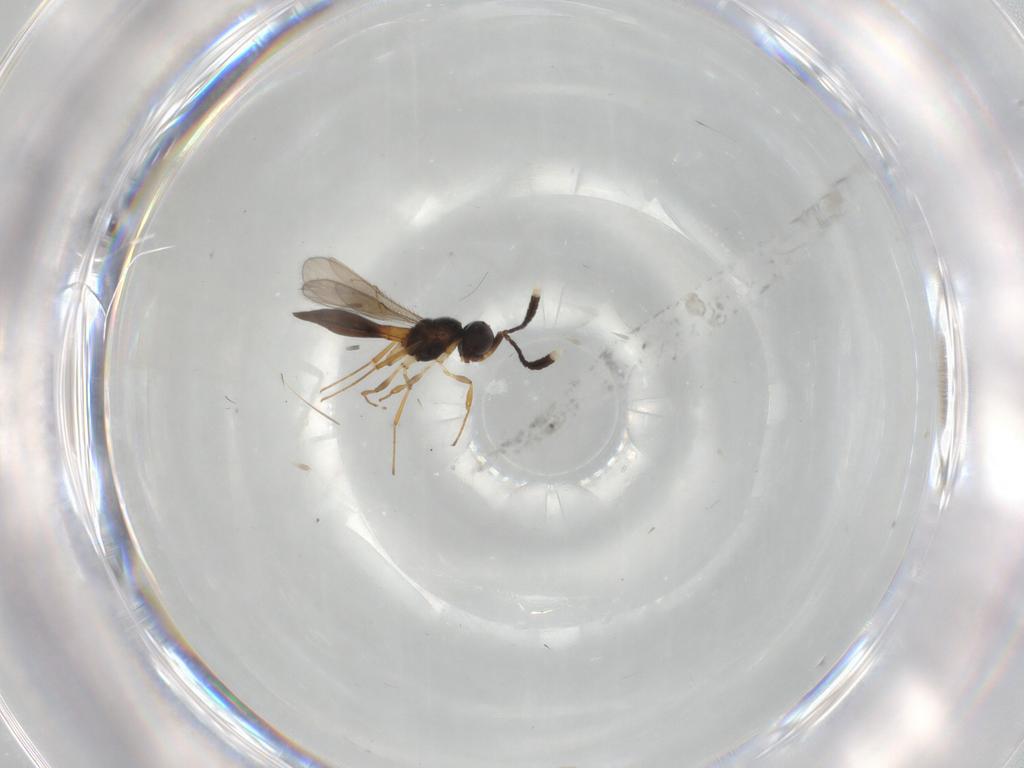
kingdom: Animalia
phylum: Arthropoda
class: Insecta
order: Hymenoptera
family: Scelionidae
